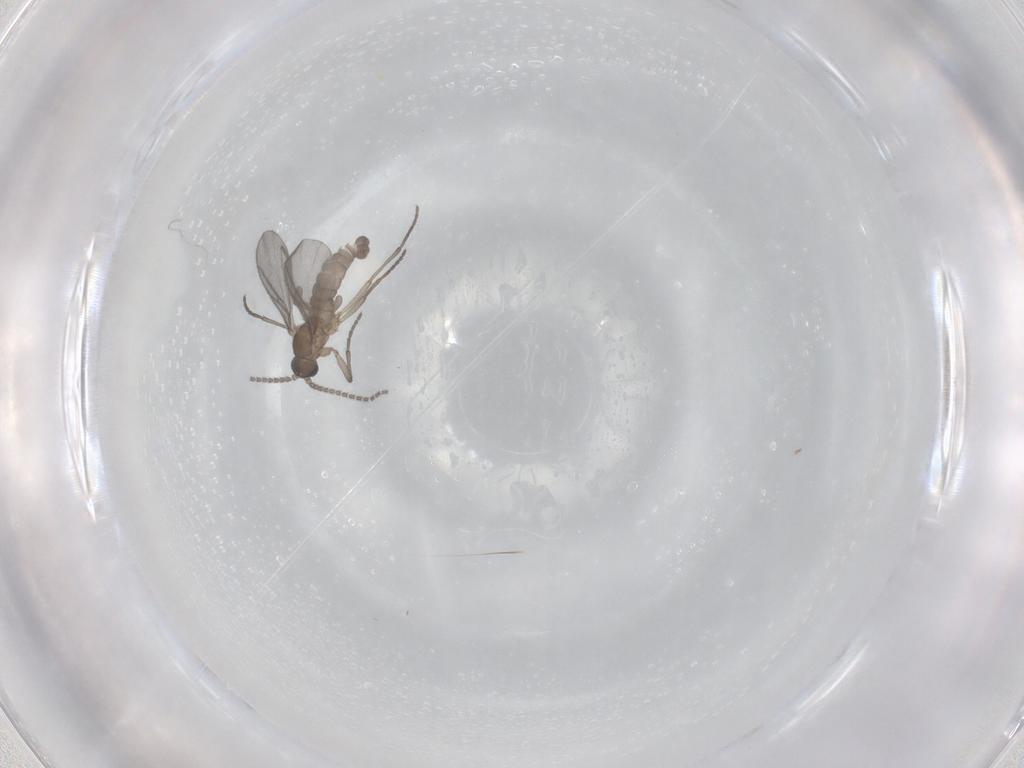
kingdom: Animalia
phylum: Arthropoda
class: Insecta
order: Diptera
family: Sciaridae
